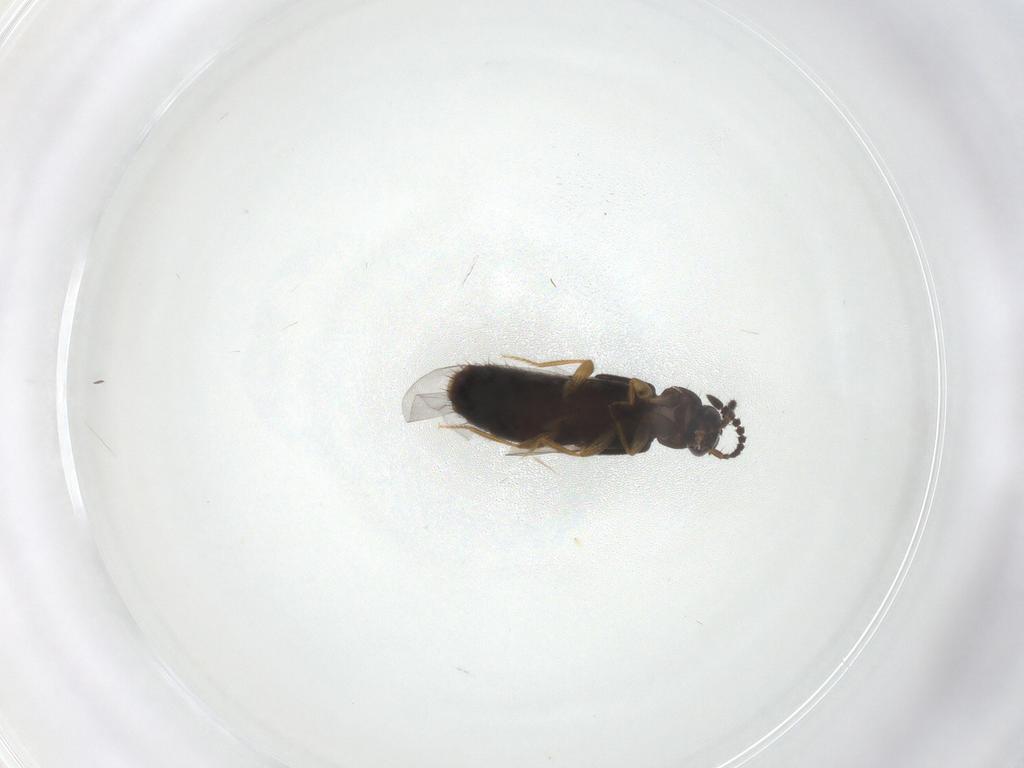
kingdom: Animalia
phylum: Arthropoda
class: Insecta
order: Coleoptera
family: Staphylinidae
